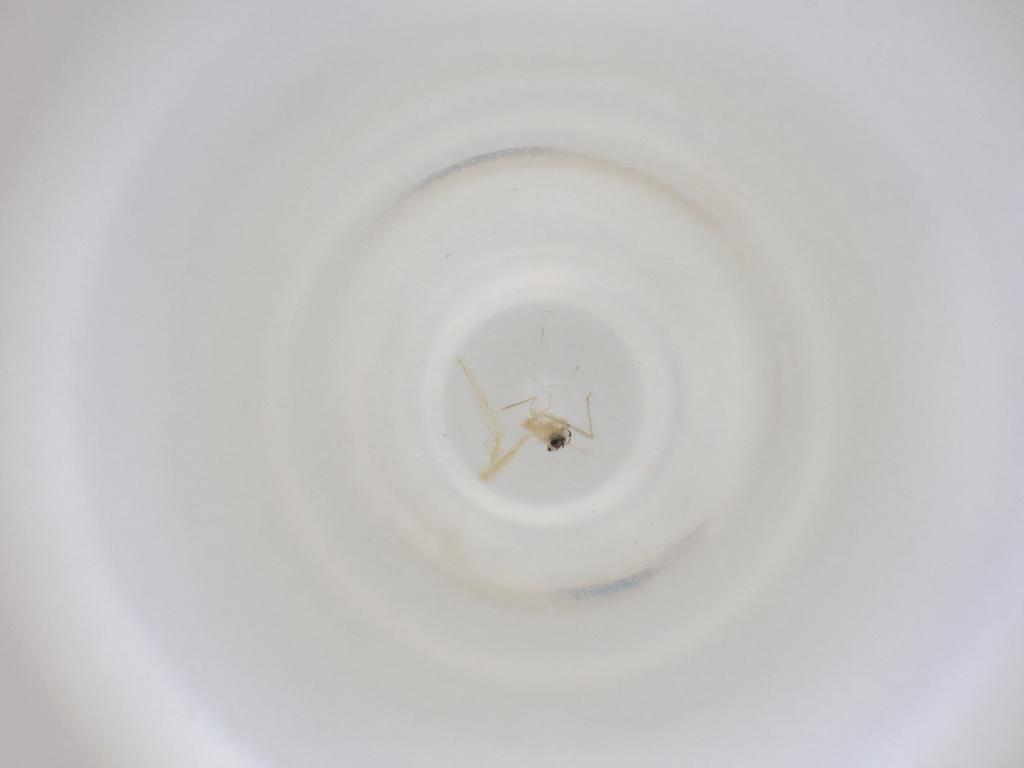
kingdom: Animalia
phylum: Arthropoda
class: Insecta
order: Diptera
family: Cecidomyiidae
